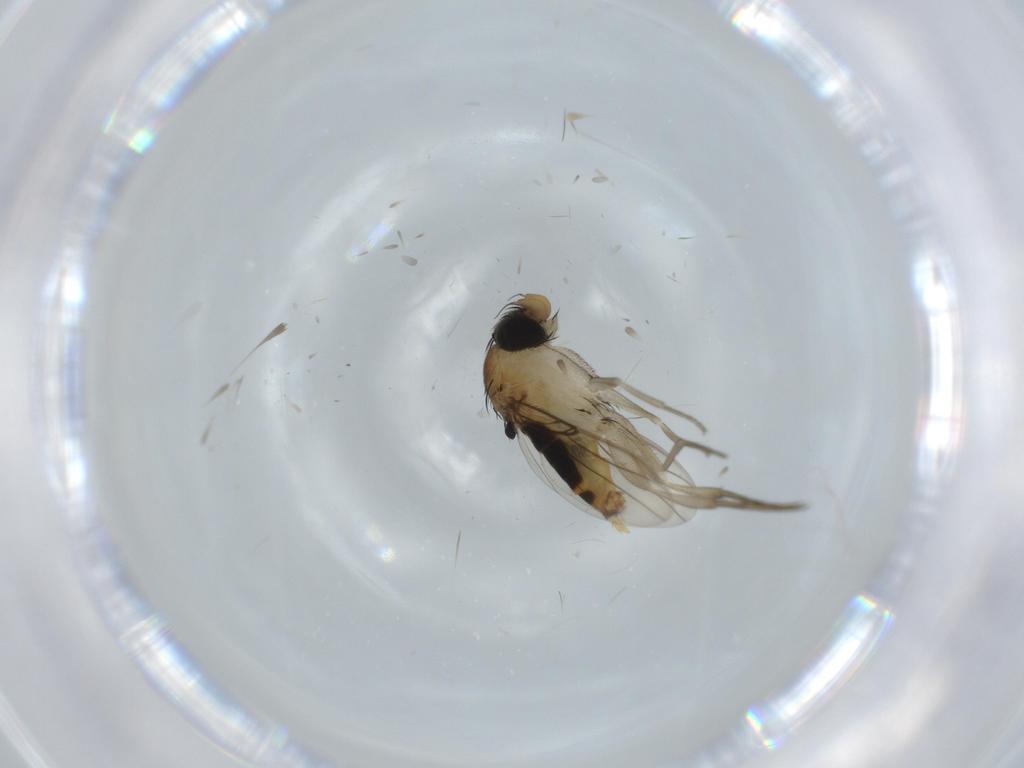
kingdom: Animalia
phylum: Arthropoda
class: Insecta
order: Diptera
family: Phoridae
